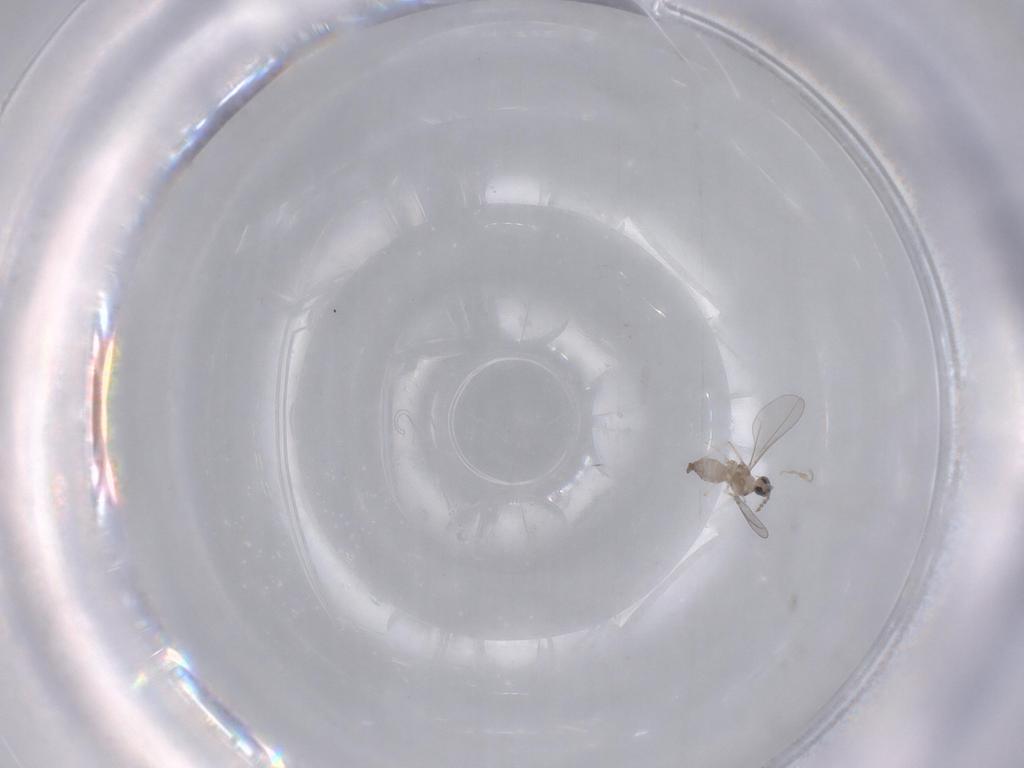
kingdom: Animalia
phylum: Arthropoda
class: Insecta
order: Diptera
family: Cecidomyiidae
